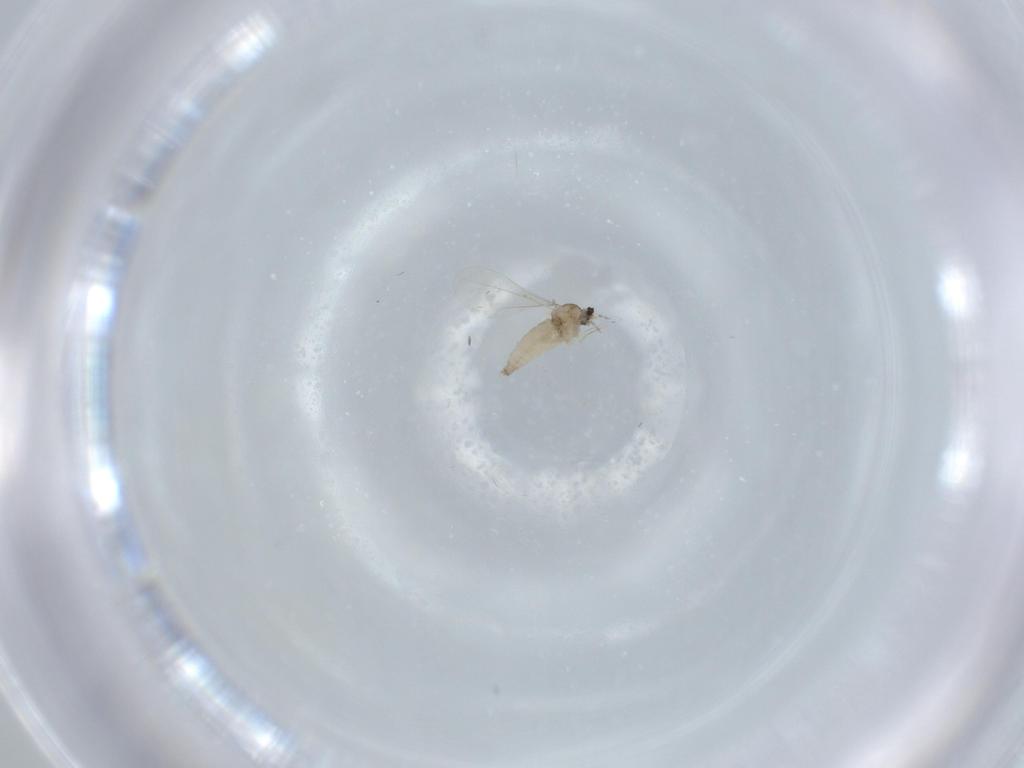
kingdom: Animalia
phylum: Arthropoda
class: Insecta
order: Diptera
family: Cecidomyiidae
